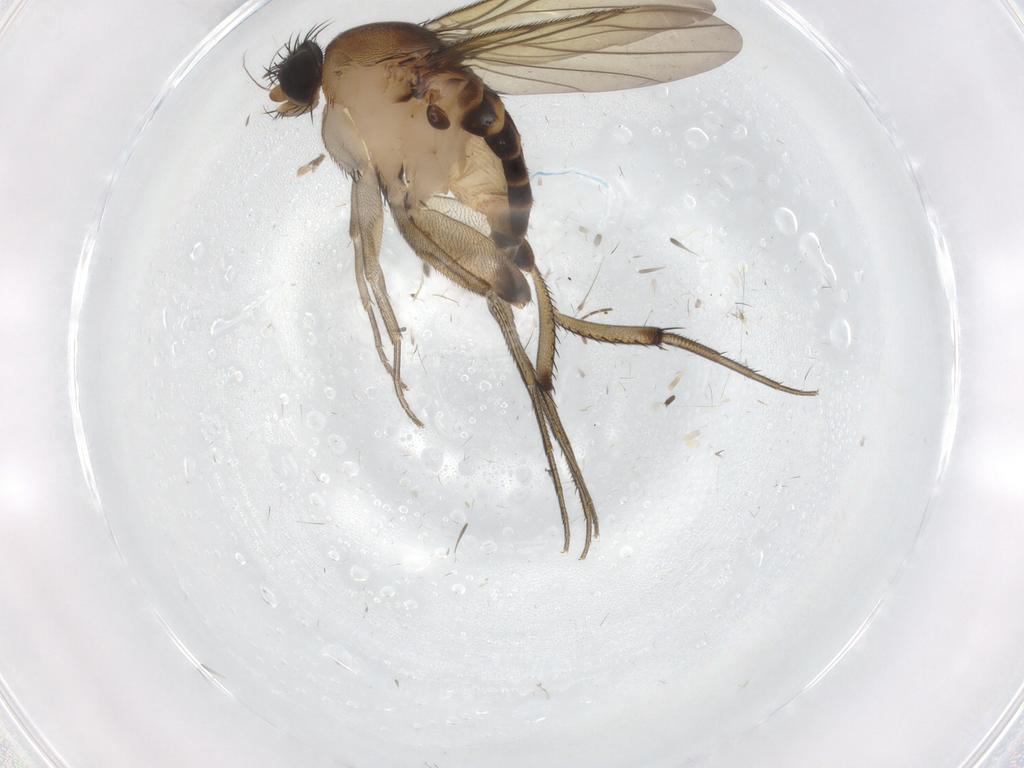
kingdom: Animalia
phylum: Arthropoda
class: Insecta
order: Diptera
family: Phoridae
